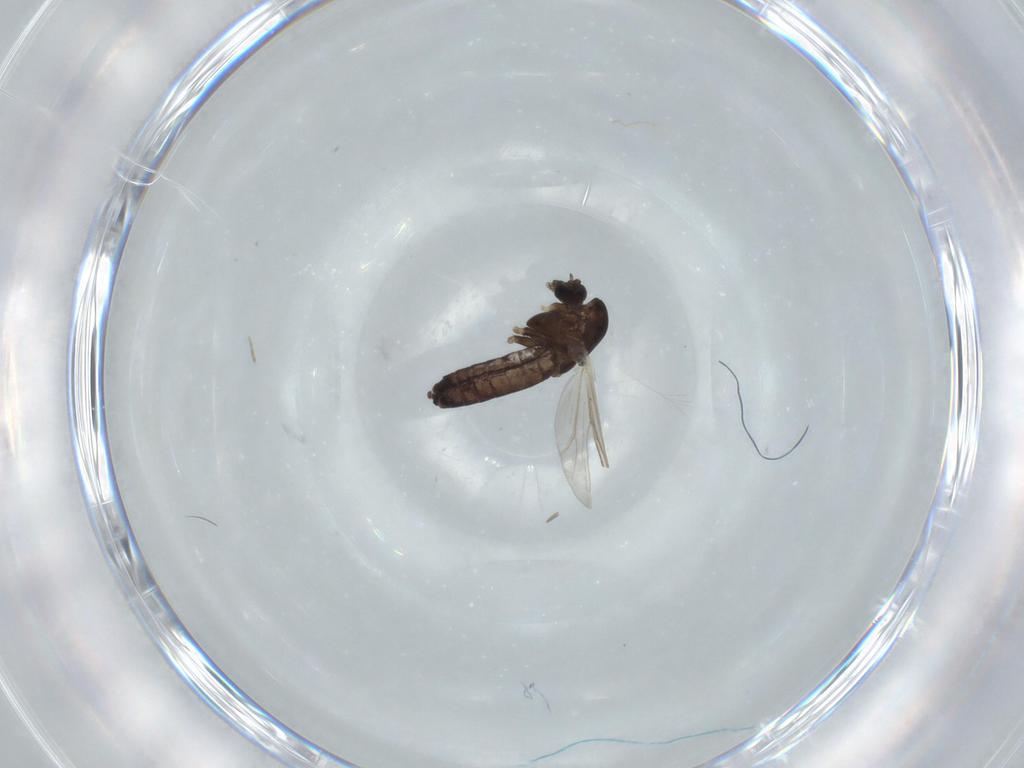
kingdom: Animalia
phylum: Arthropoda
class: Insecta
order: Diptera
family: Chironomidae
